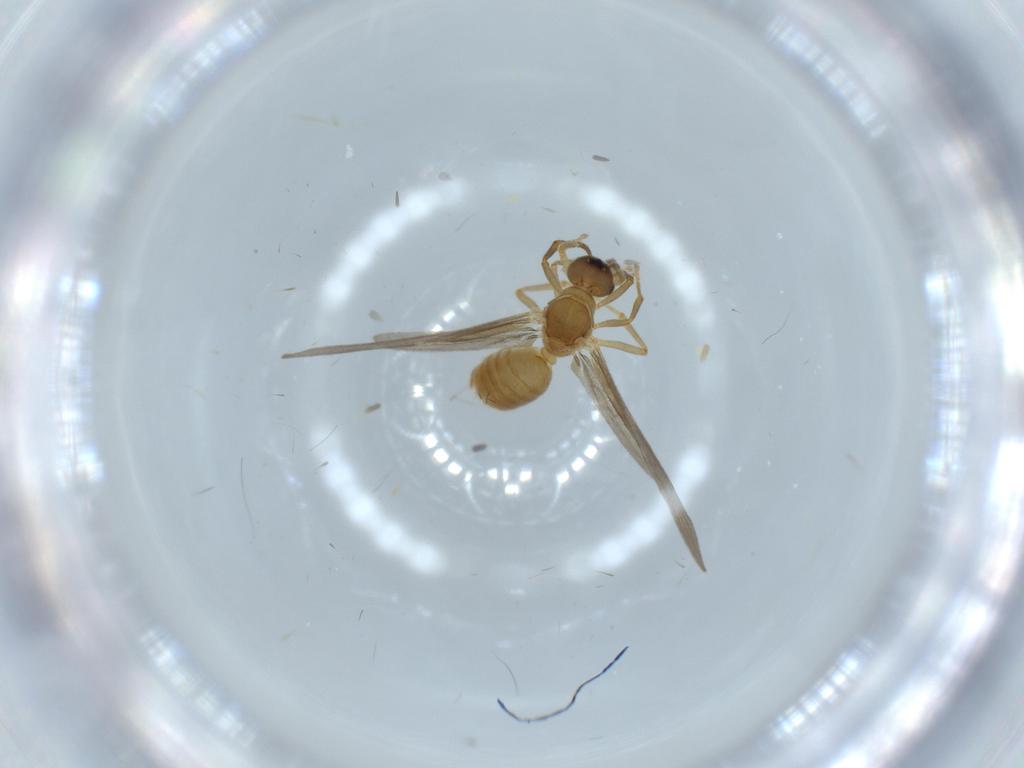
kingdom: Animalia
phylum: Arthropoda
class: Insecta
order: Hymenoptera
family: Formicidae
